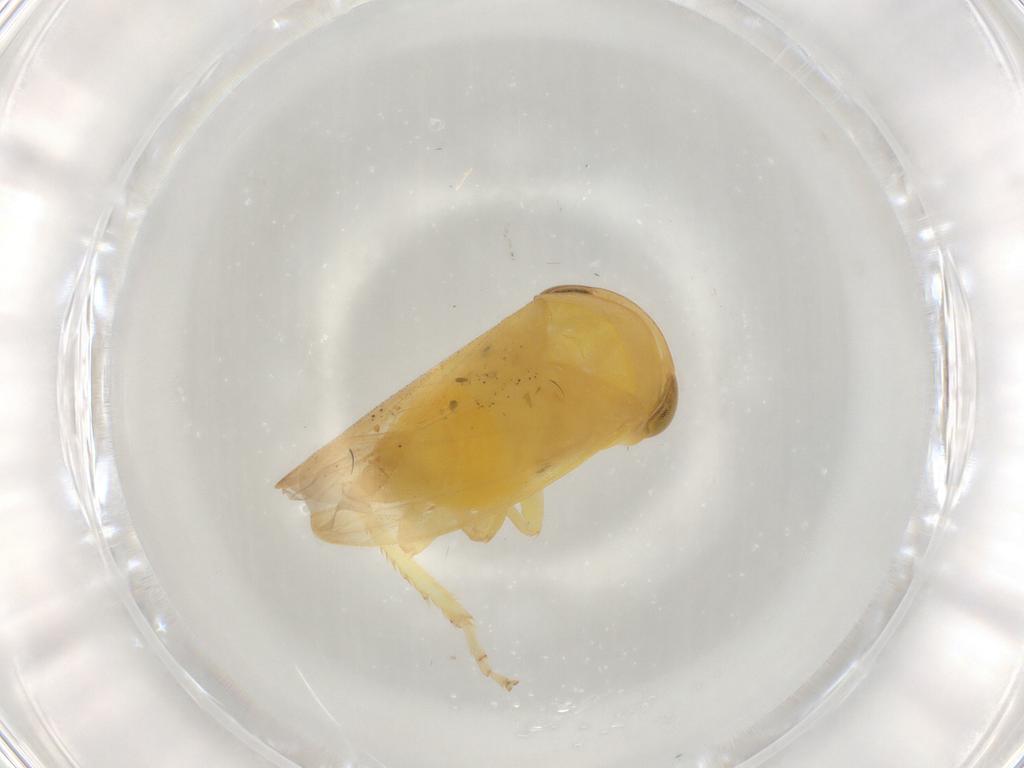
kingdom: Animalia
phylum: Arthropoda
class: Insecta
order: Hemiptera
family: Cicadellidae
